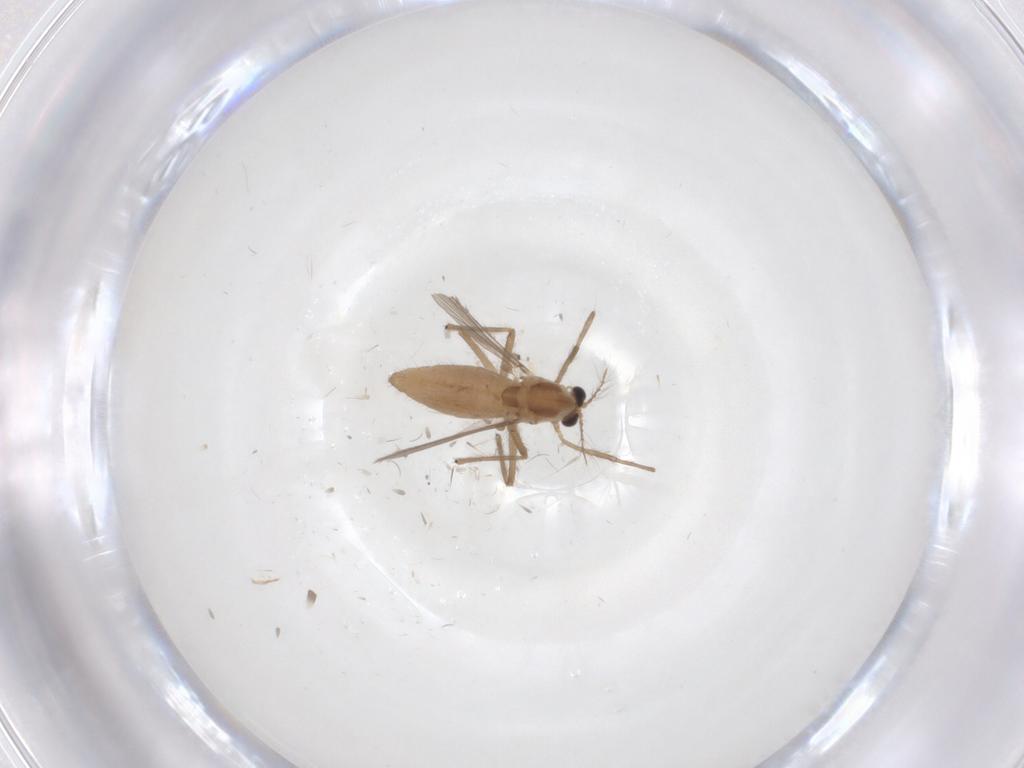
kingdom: Animalia
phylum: Arthropoda
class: Insecta
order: Diptera
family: Chironomidae
